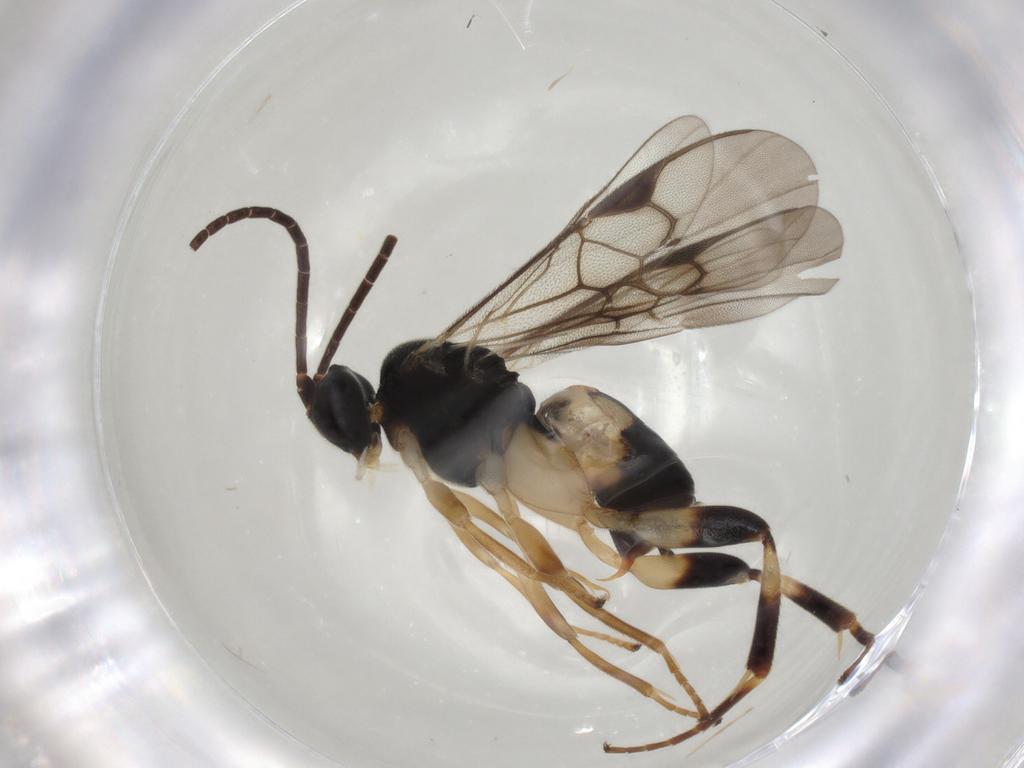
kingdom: Animalia
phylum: Arthropoda
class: Insecta
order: Hymenoptera
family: Braconidae
